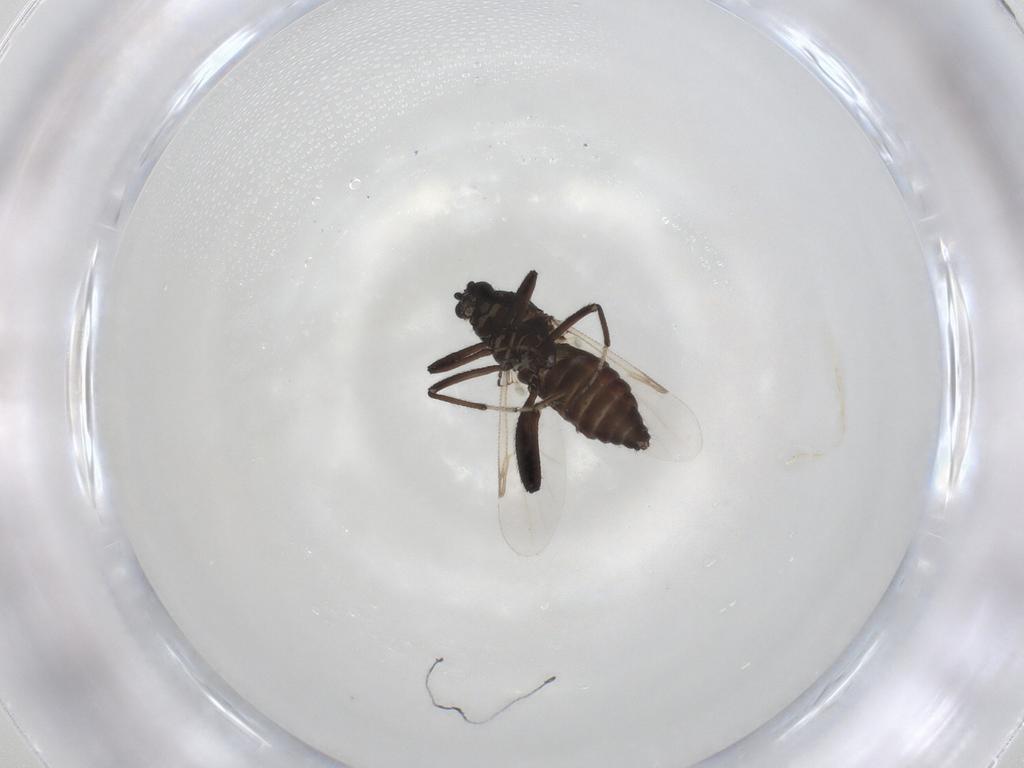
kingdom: Animalia
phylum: Arthropoda
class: Insecta
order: Diptera
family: Ceratopogonidae
